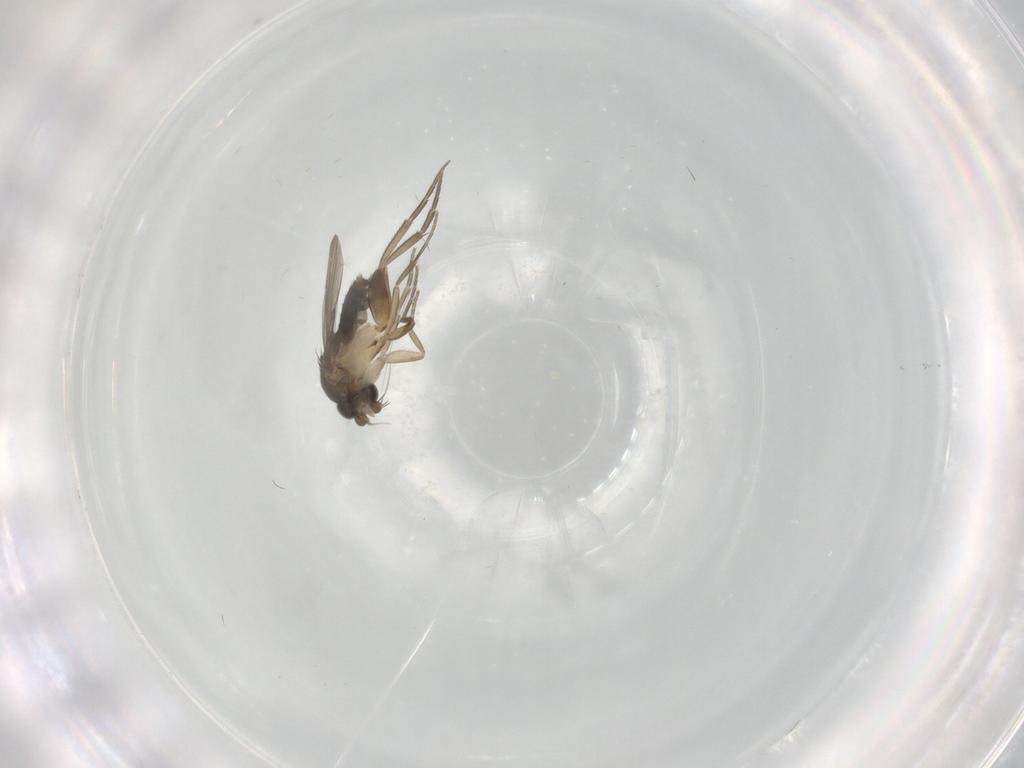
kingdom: Animalia
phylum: Arthropoda
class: Insecta
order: Diptera
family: Phoridae
